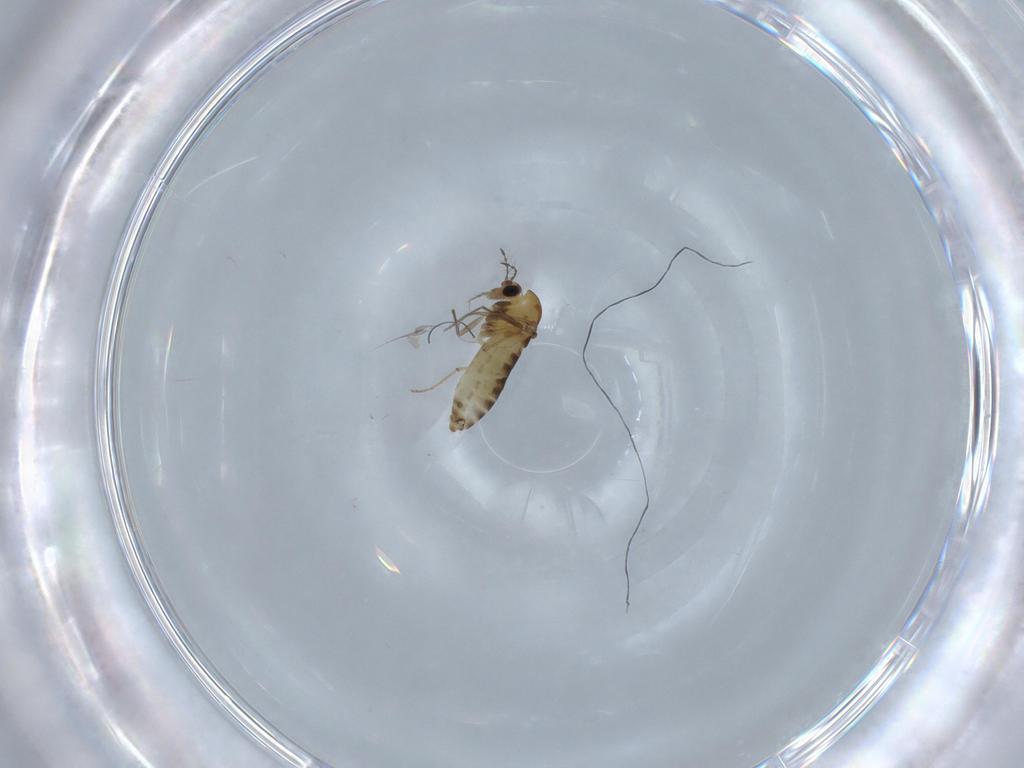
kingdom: Animalia
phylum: Arthropoda
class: Insecta
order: Diptera
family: Chironomidae
